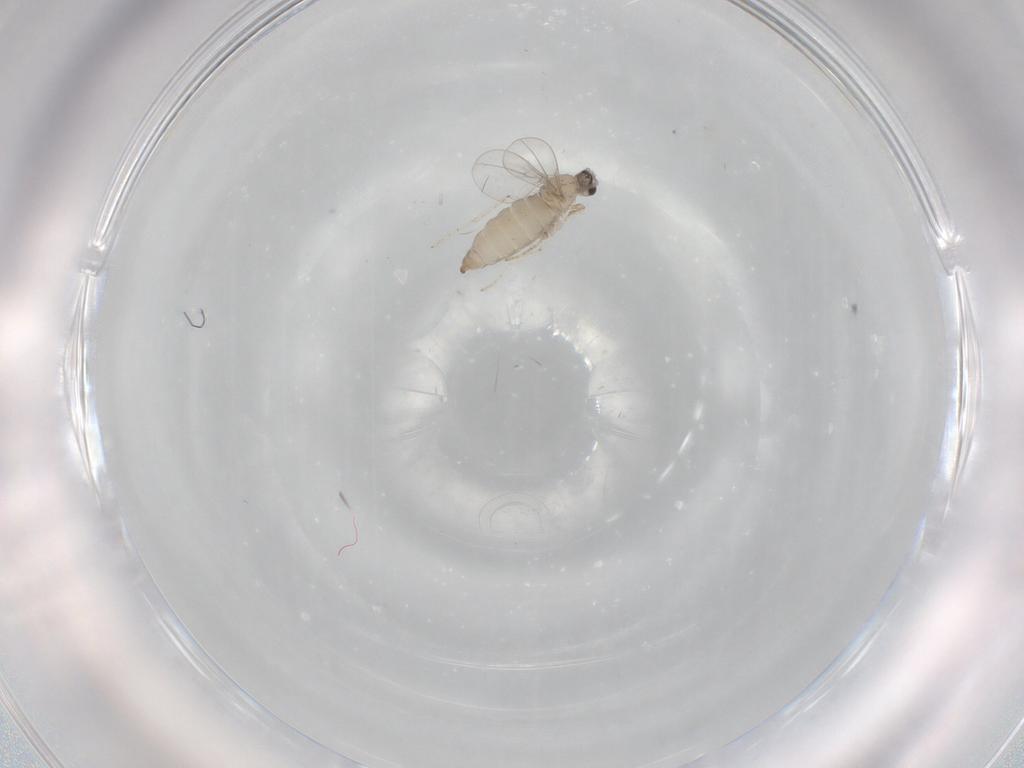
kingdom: Animalia
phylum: Arthropoda
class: Insecta
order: Diptera
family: Cecidomyiidae
